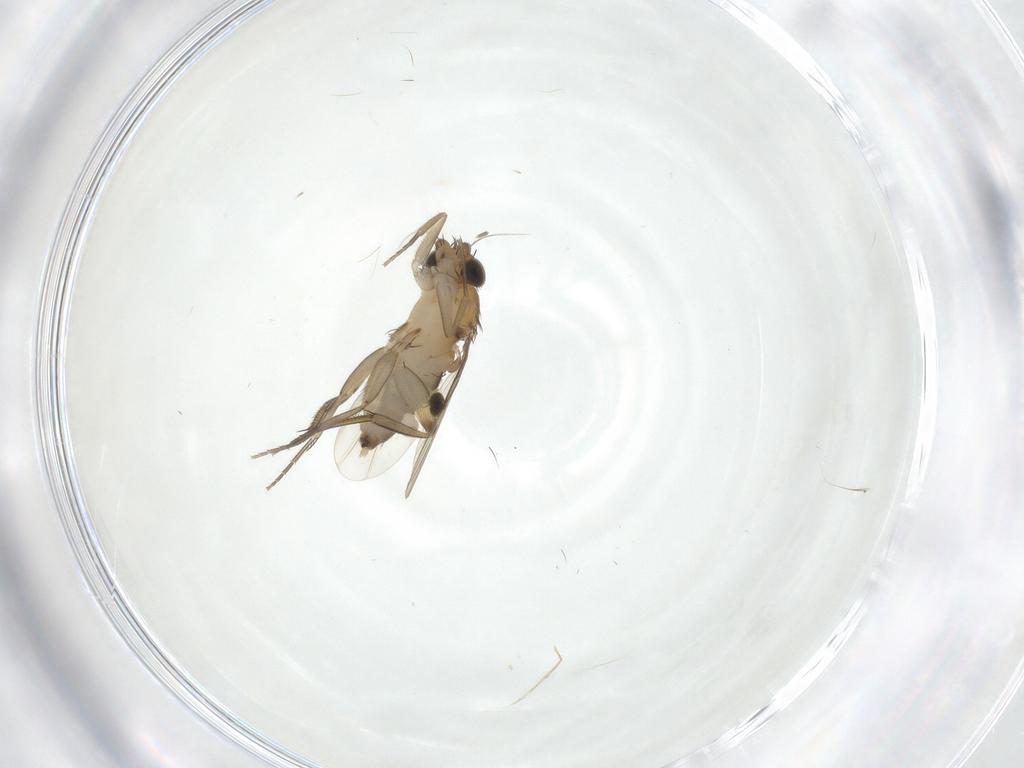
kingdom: Animalia
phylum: Arthropoda
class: Insecta
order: Diptera
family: Phoridae
